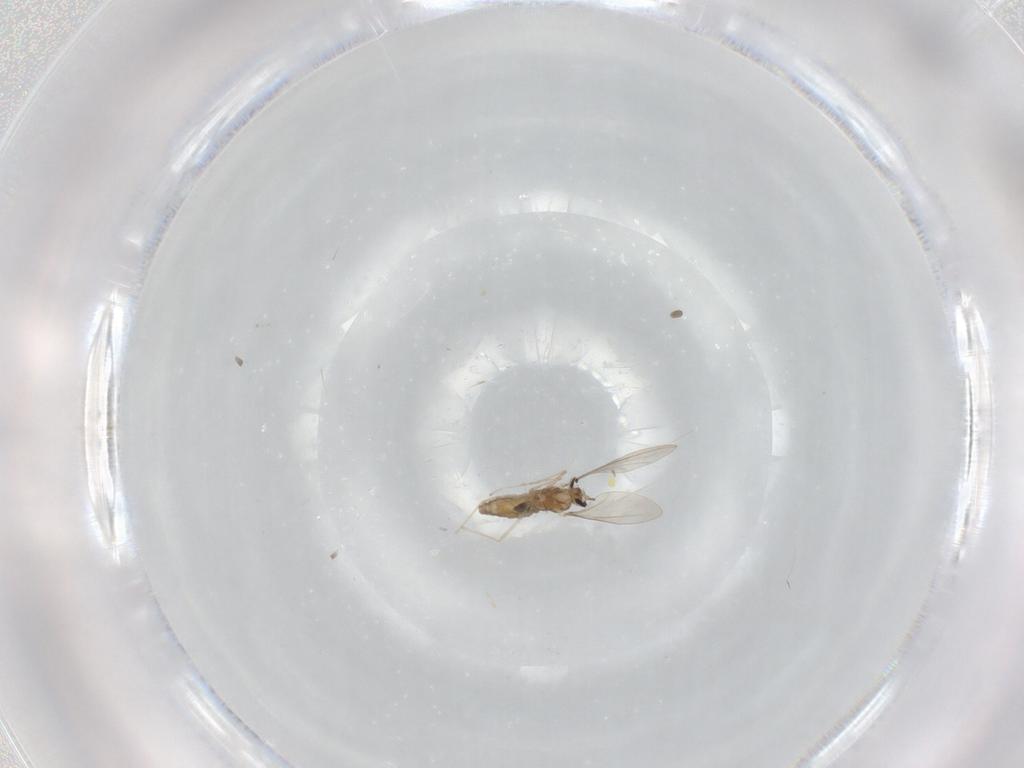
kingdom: Animalia
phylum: Arthropoda
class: Insecta
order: Diptera
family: Cecidomyiidae
